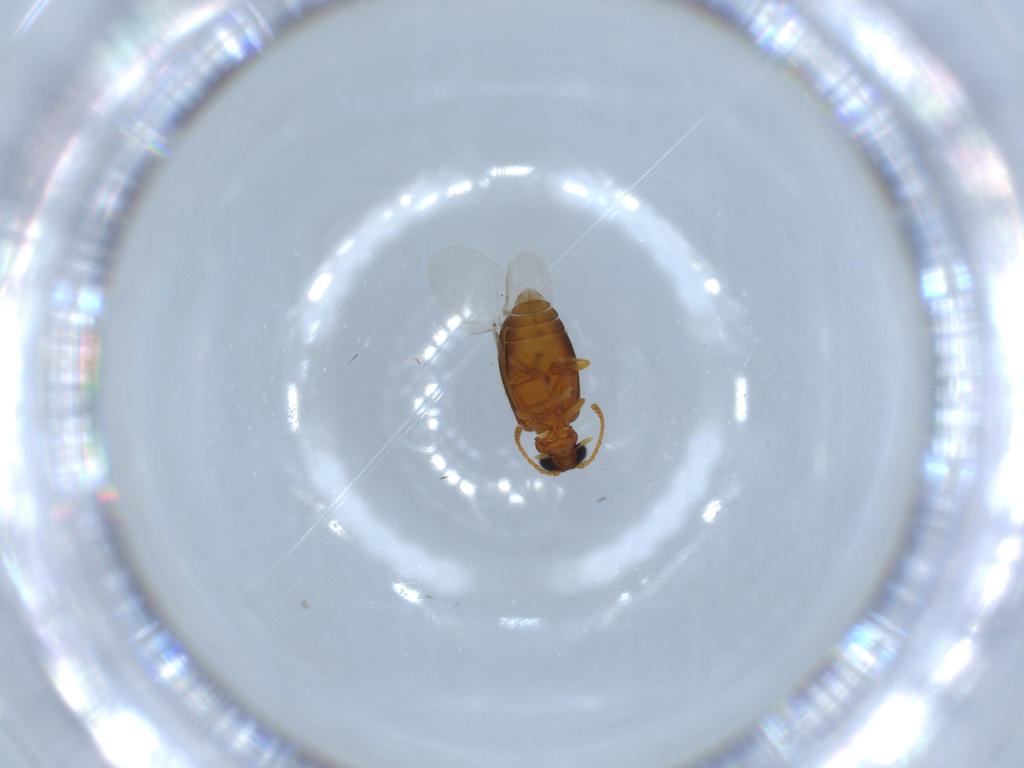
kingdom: Animalia
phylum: Arthropoda
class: Insecta
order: Coleoptera
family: Aderidae
